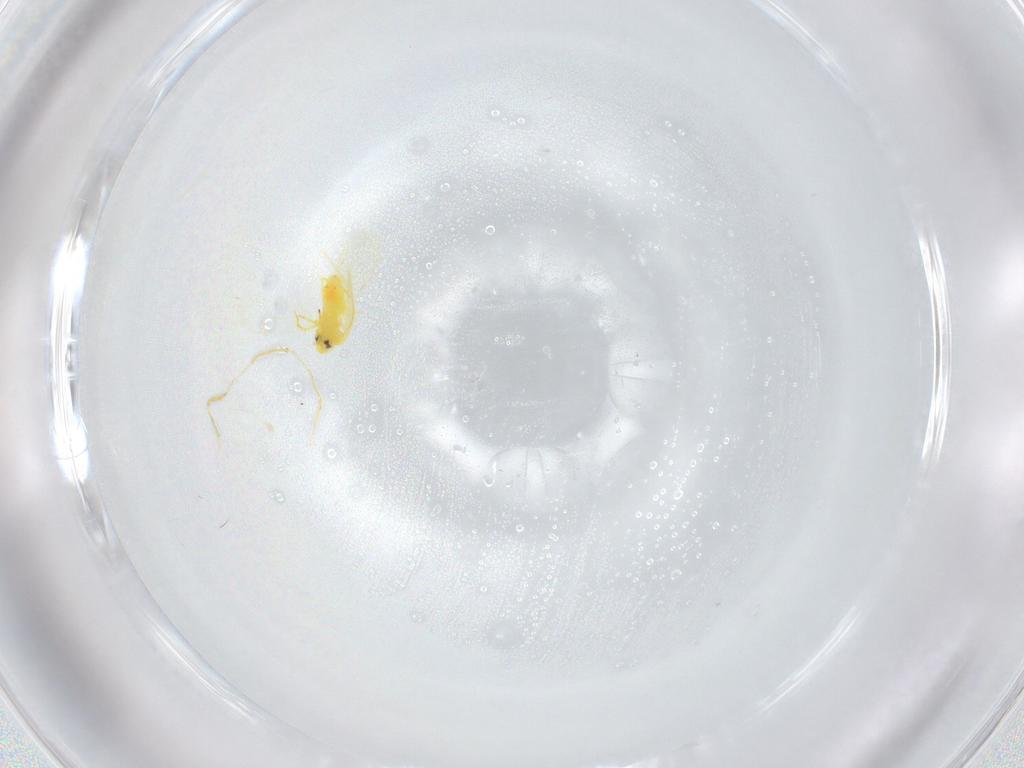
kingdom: Animalia
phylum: Arthropoda
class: Insecta
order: Hemiptera
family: Aleyrodidae
